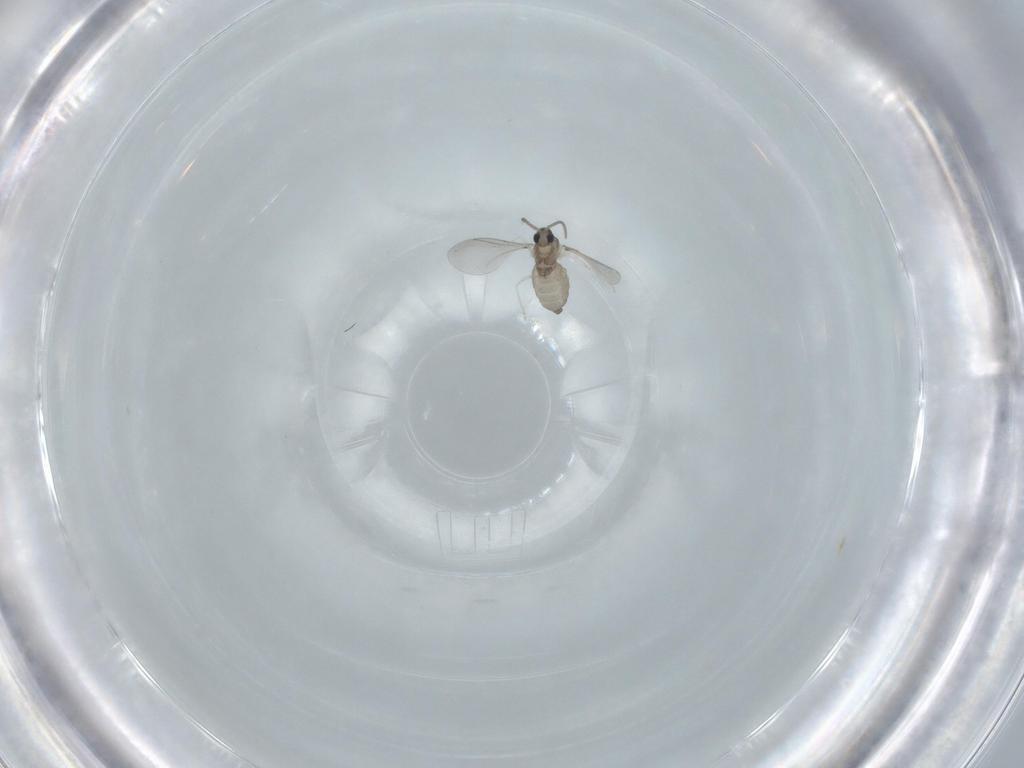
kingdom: Animalia
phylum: Arthropoda
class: Insecta
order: Diptera
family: Cecidomyiidae
